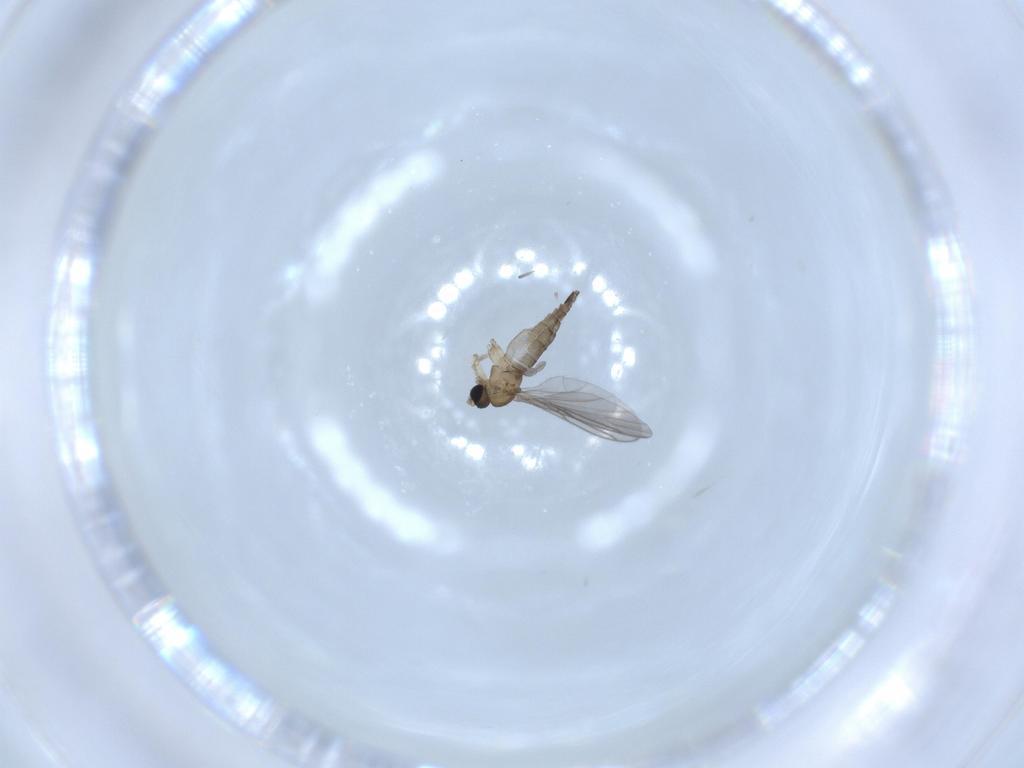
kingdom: Animalia
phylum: Arthropoda
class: Insecta
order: Diptera
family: Sciaridae
